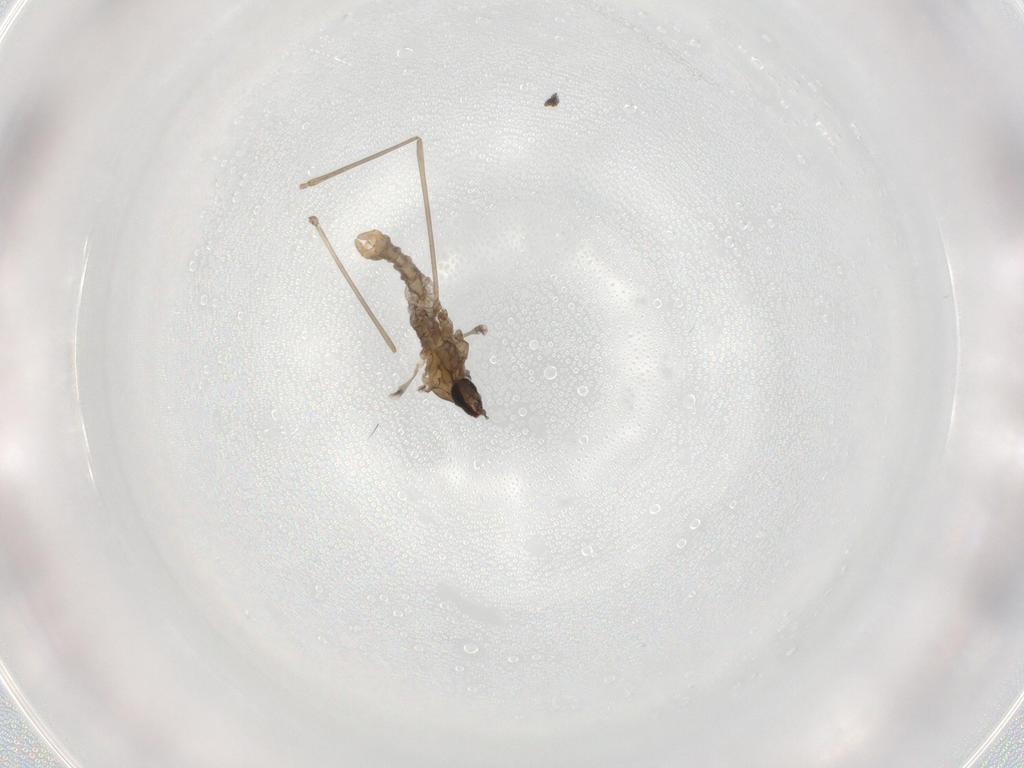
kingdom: Animalia
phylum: Arthropoda
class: Insecta
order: Diptera
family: Cecidomyiidae
